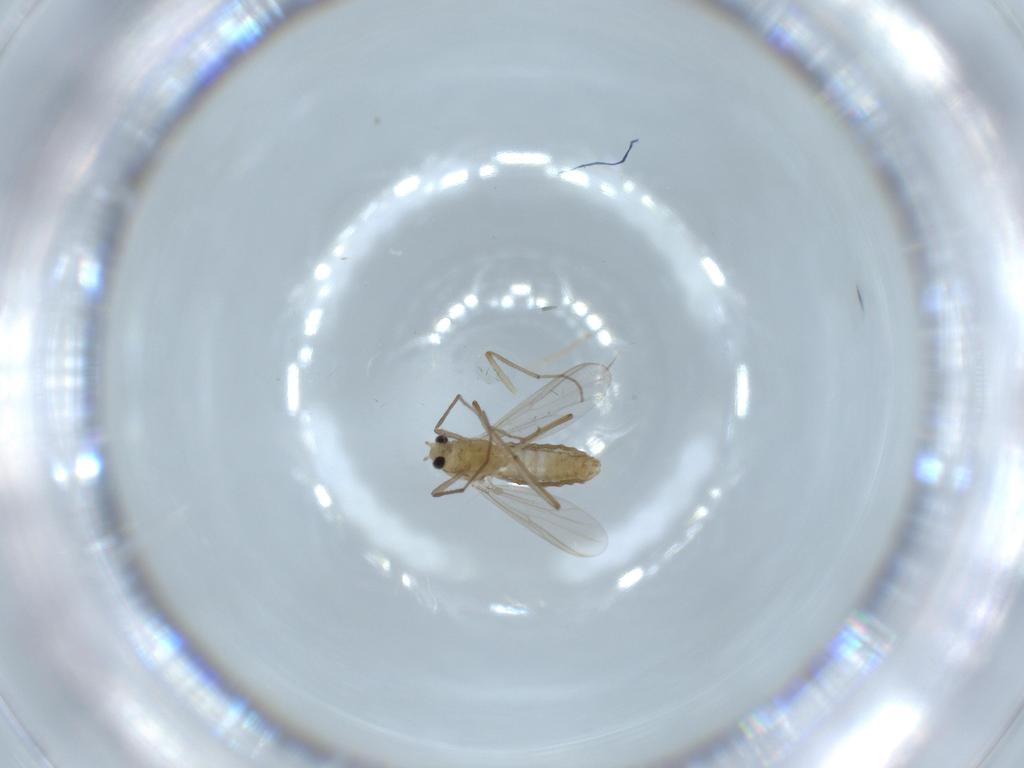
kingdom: Animalia
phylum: Arthropoda
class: Insecta
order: Diptera
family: Chironomidae
